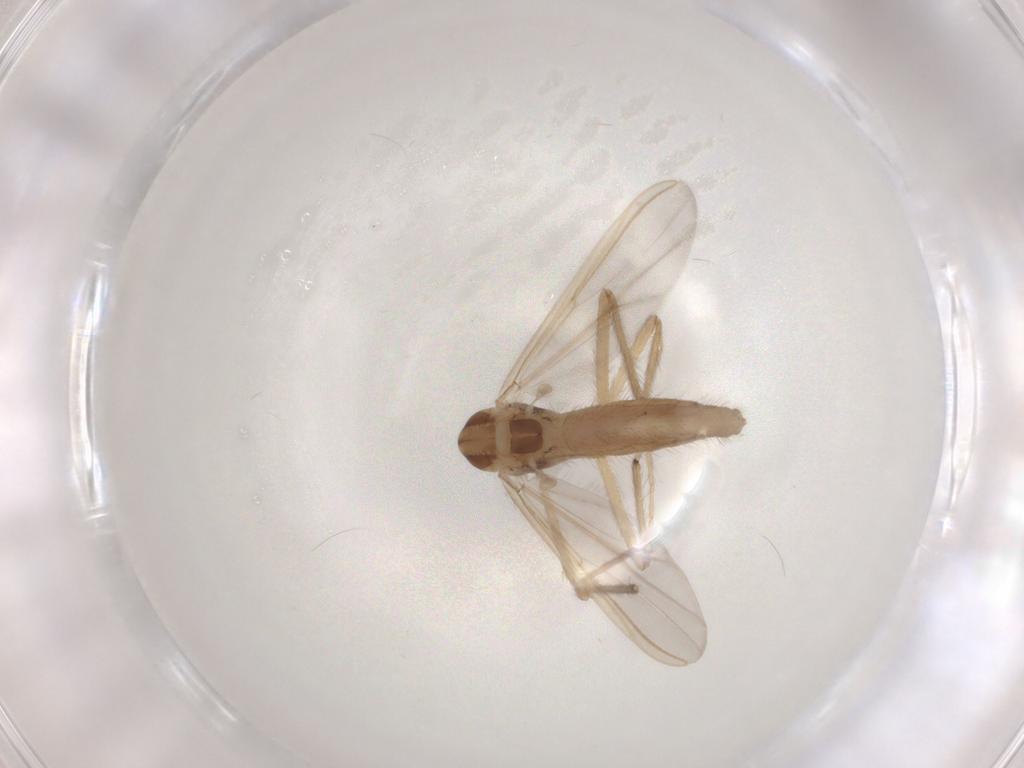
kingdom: Animalia
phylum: Arthropoda
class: Insecta
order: Diptera
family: Chironomidae
